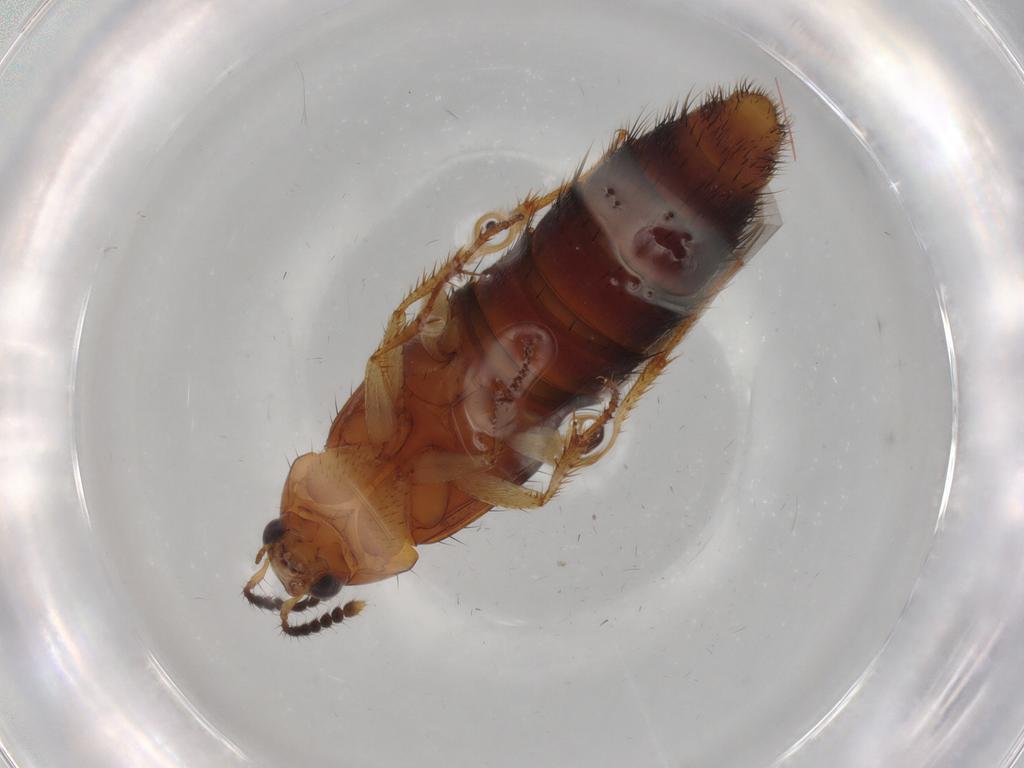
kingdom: Animalia
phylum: Arthropoda
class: Insecta
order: Coleoptera
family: Staphylinidae
